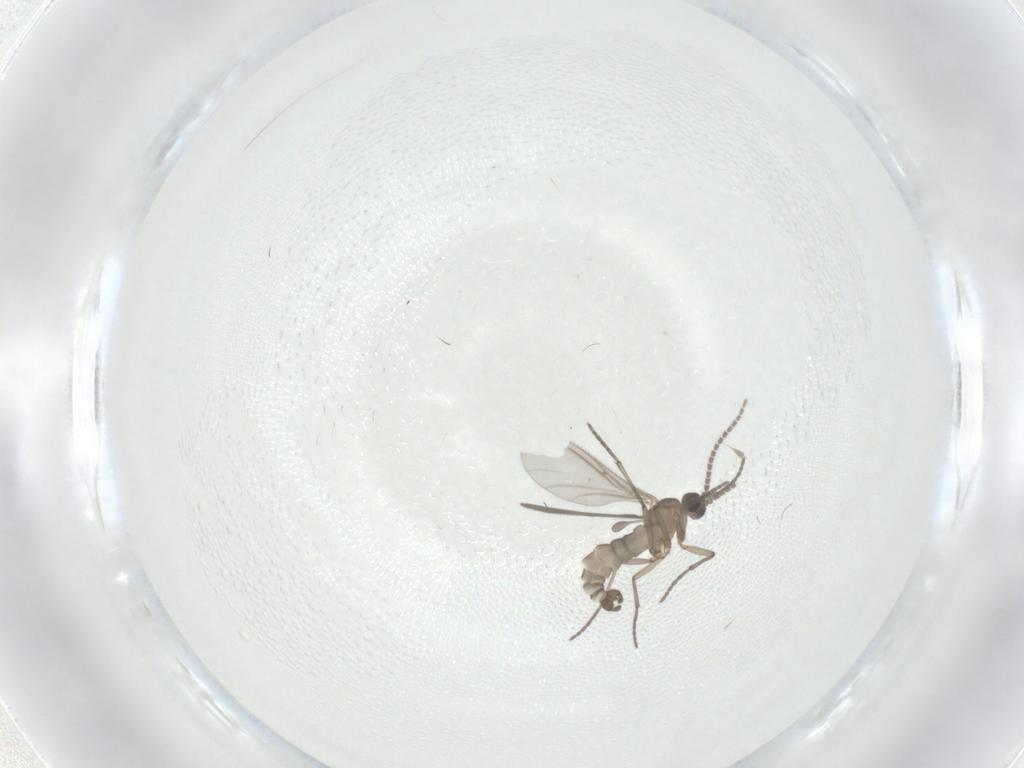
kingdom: Animalia
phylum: Arthropoda
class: Insecta
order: Diptera
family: Sciaridae
